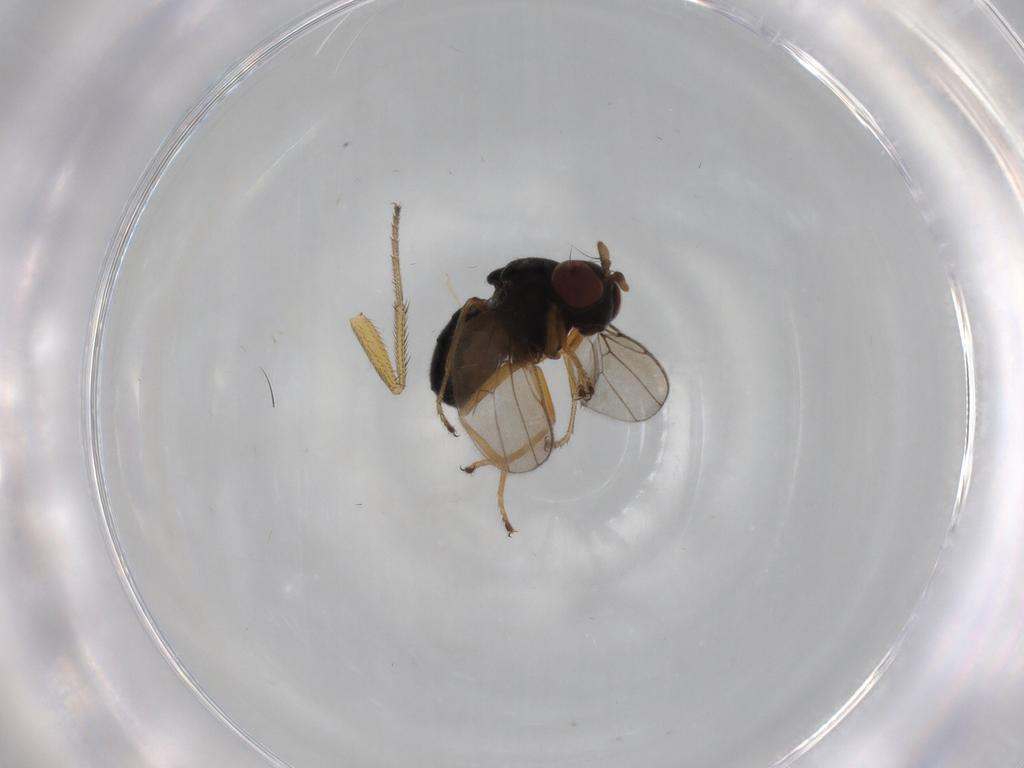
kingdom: Animalia
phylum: Arthropoda
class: Insecta
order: Diptera
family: Ephydridae
